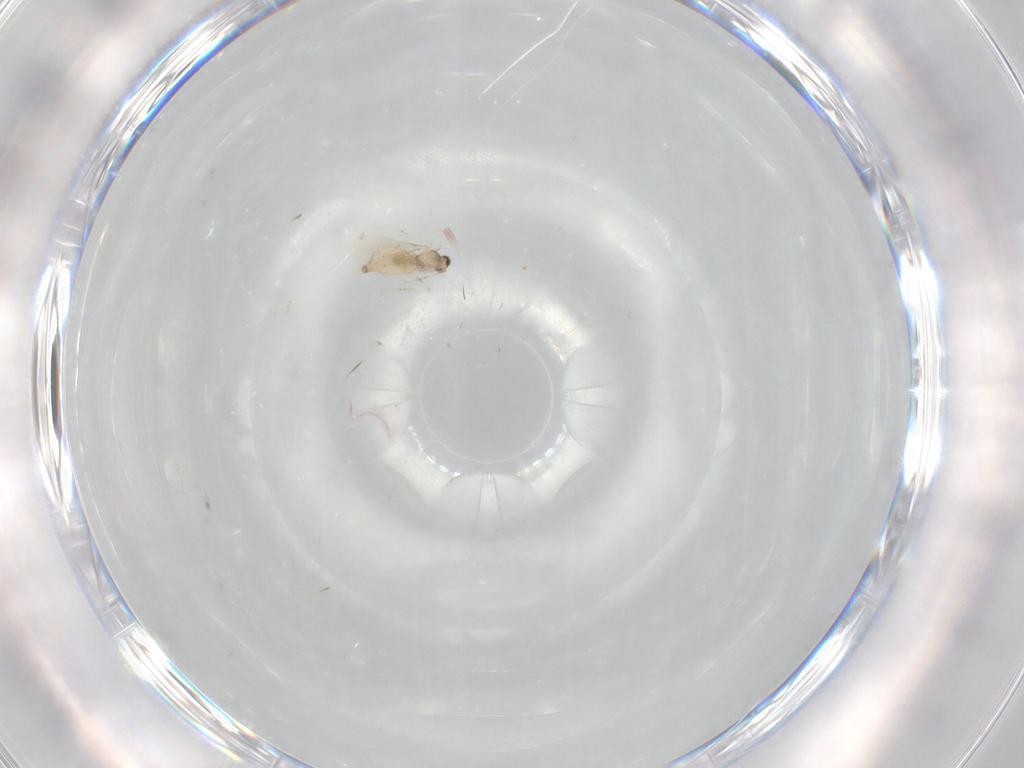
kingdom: Animalia
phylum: Arthropoda
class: Insecta
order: Diptera
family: Cecidomyiidae
